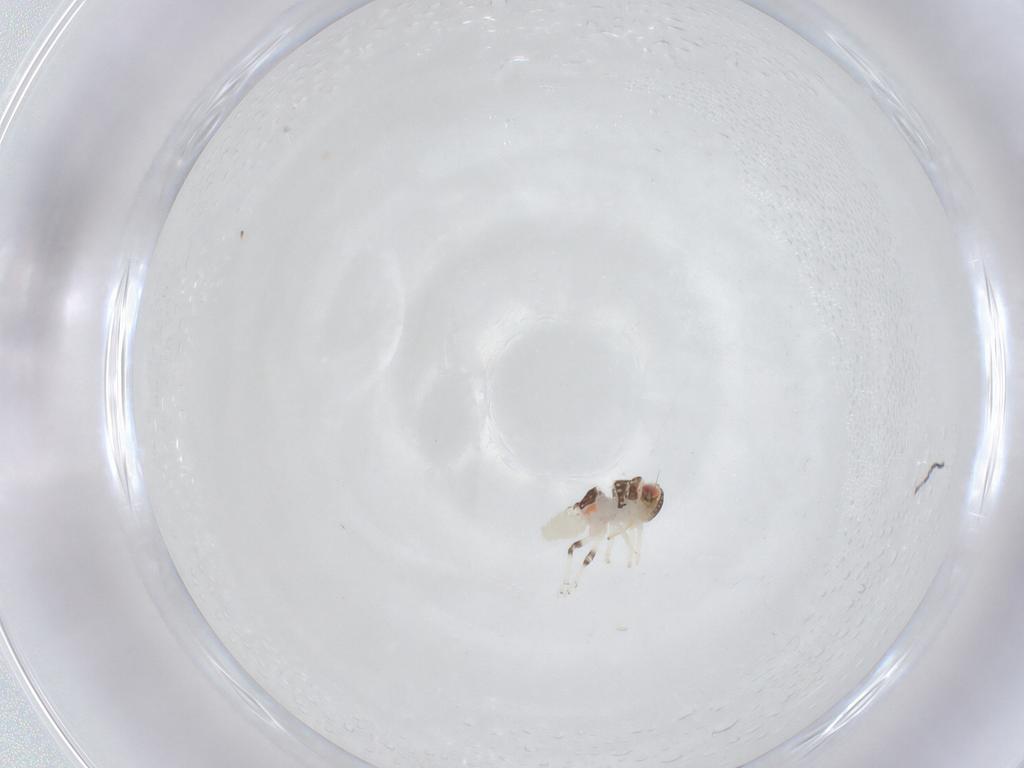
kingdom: Animalia
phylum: Arthropoda
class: Insecta
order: Hemiptera
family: Nogodinidae
